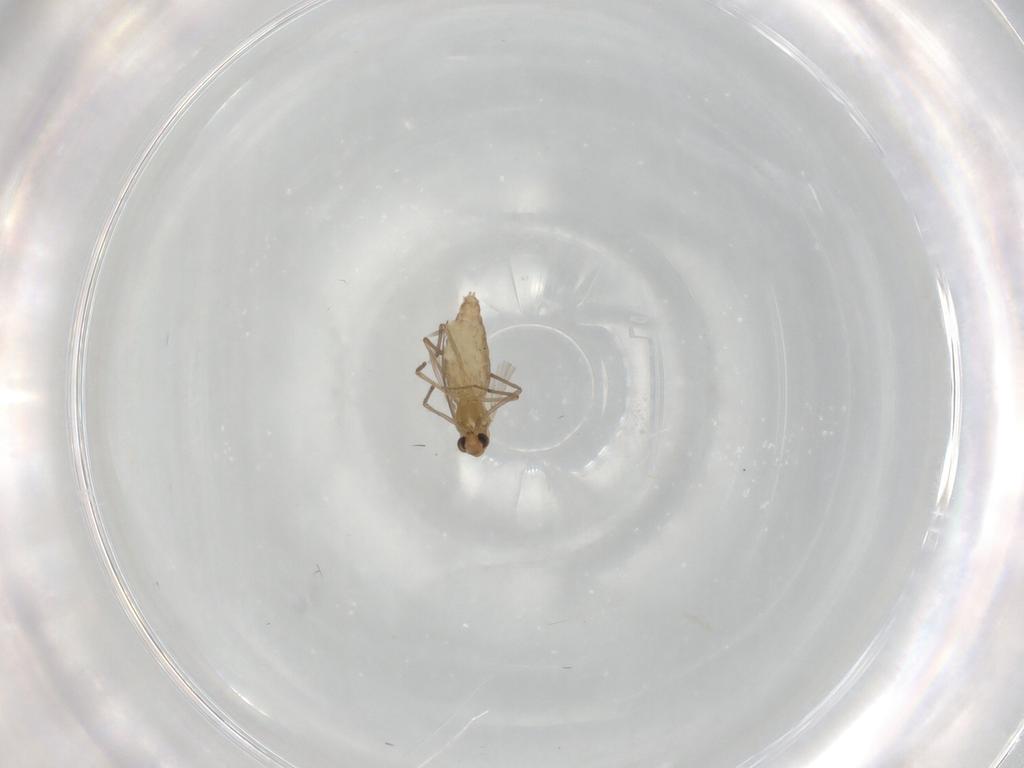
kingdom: Animalia
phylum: Arthropoda
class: Insecta
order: Diptera
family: Chironomidae
